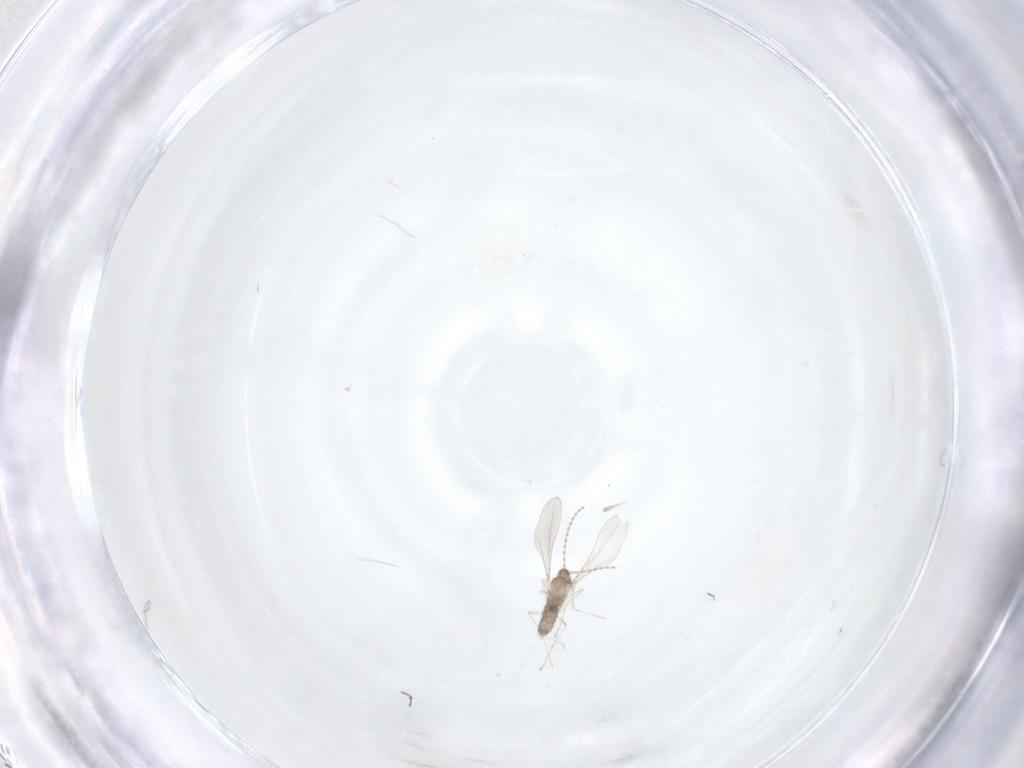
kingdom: Animalia
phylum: Arthropoda
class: Insecta
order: Diptera
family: Cecidomyiidae
